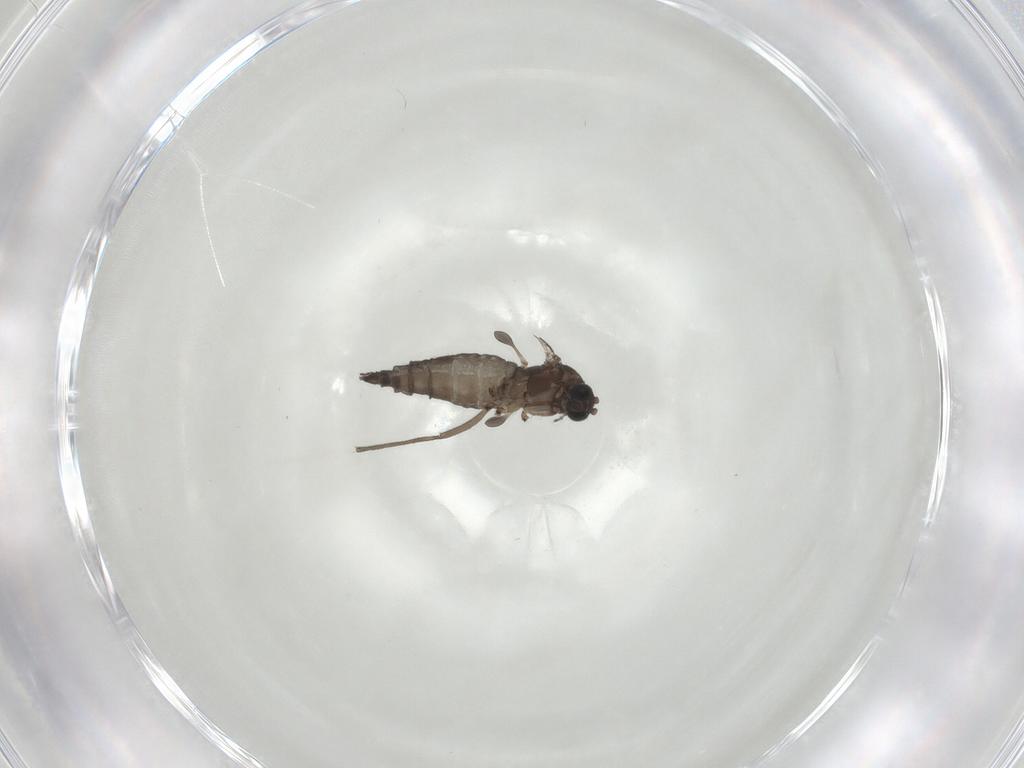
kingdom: Animalia
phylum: Arthropoda
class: Insecta
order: Diptera
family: Sciaridae
